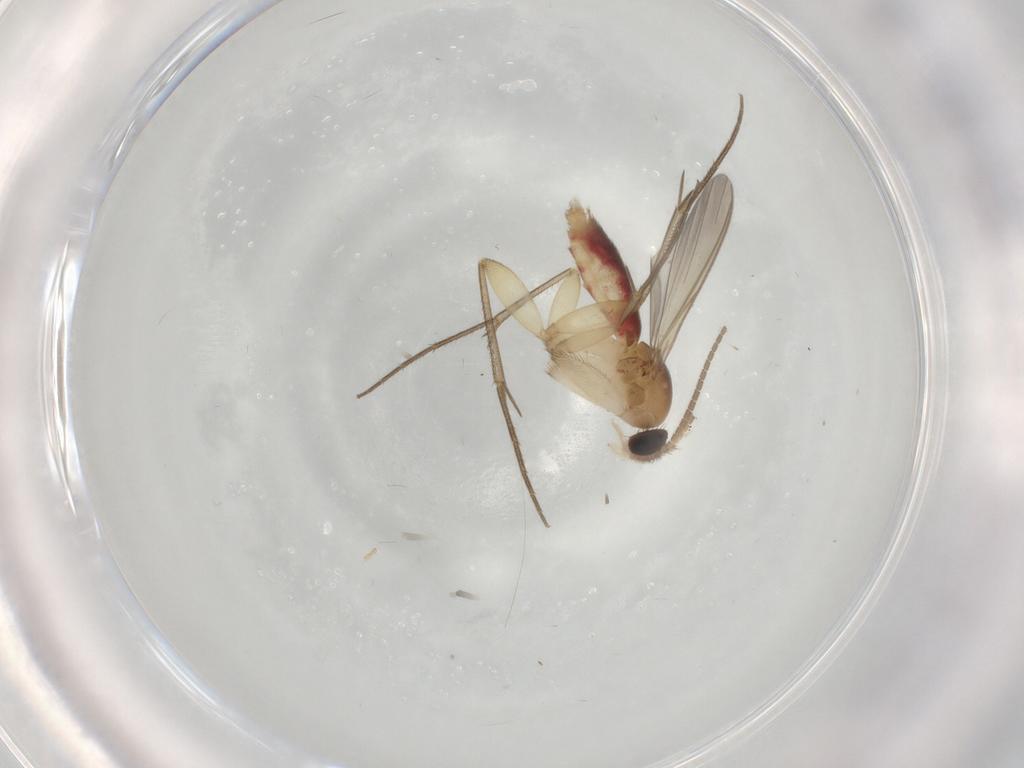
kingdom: Animalia
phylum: Arthropoda
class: Insecta
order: Diptera
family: Mycetophilidae
